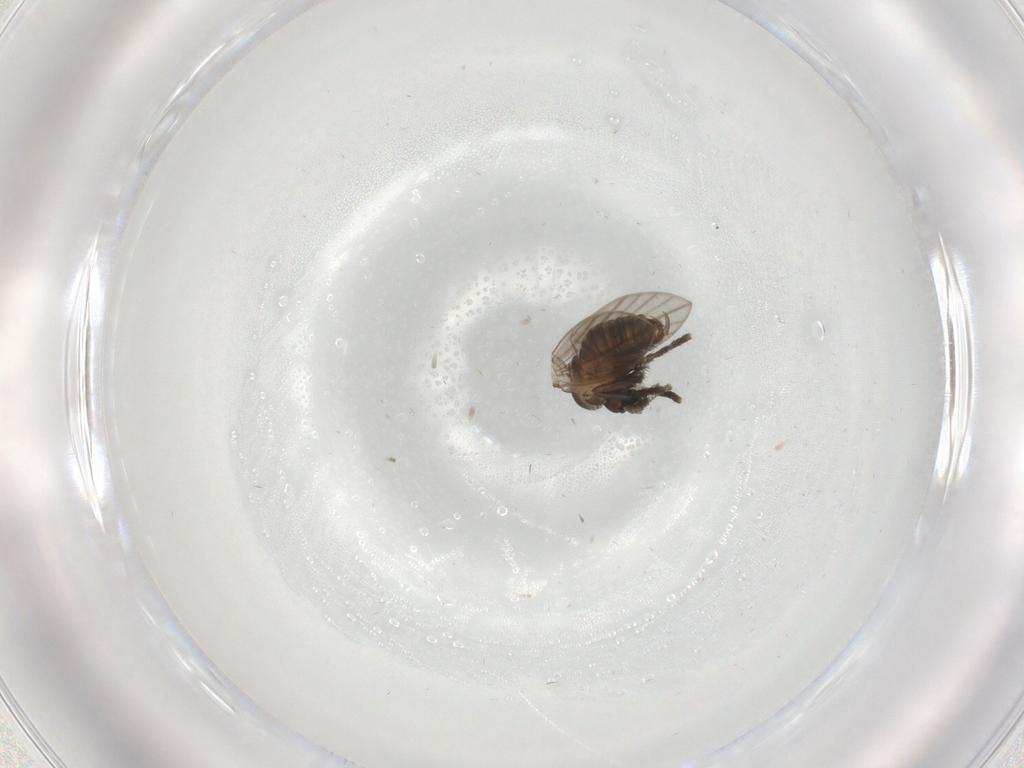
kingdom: Animalia
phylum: Arthropoda
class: Insecta
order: Diptera
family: Psychodidae
